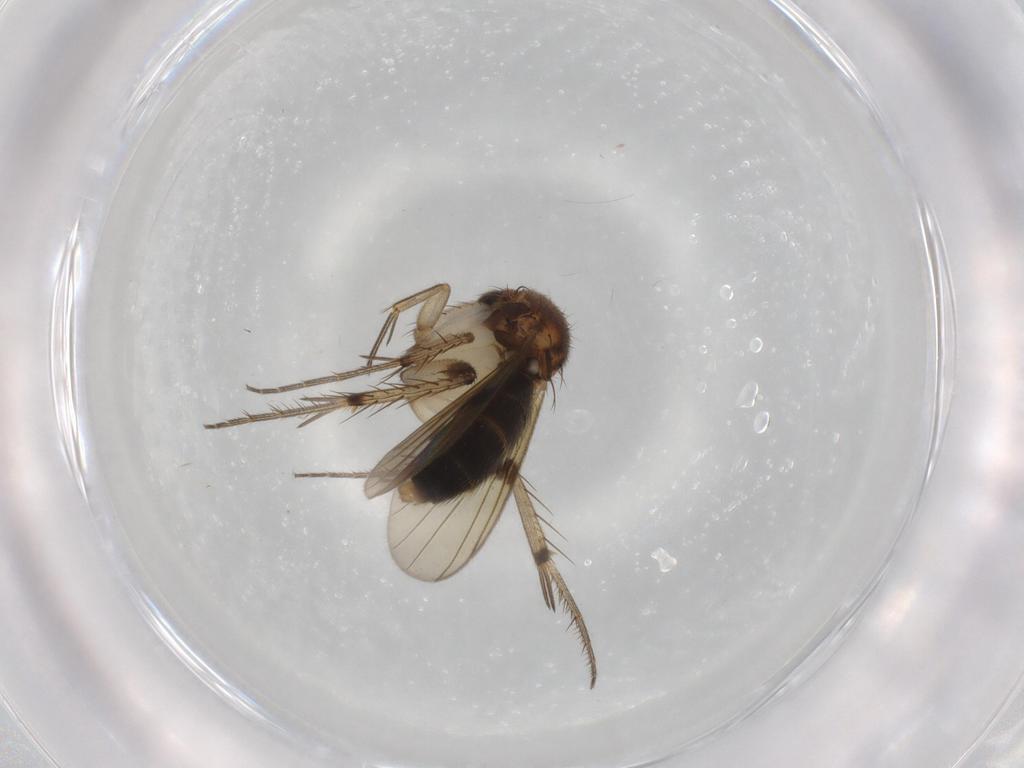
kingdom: Animalia
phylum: Arthropoda
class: Insecta
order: Diptera
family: Mycetophilidae
